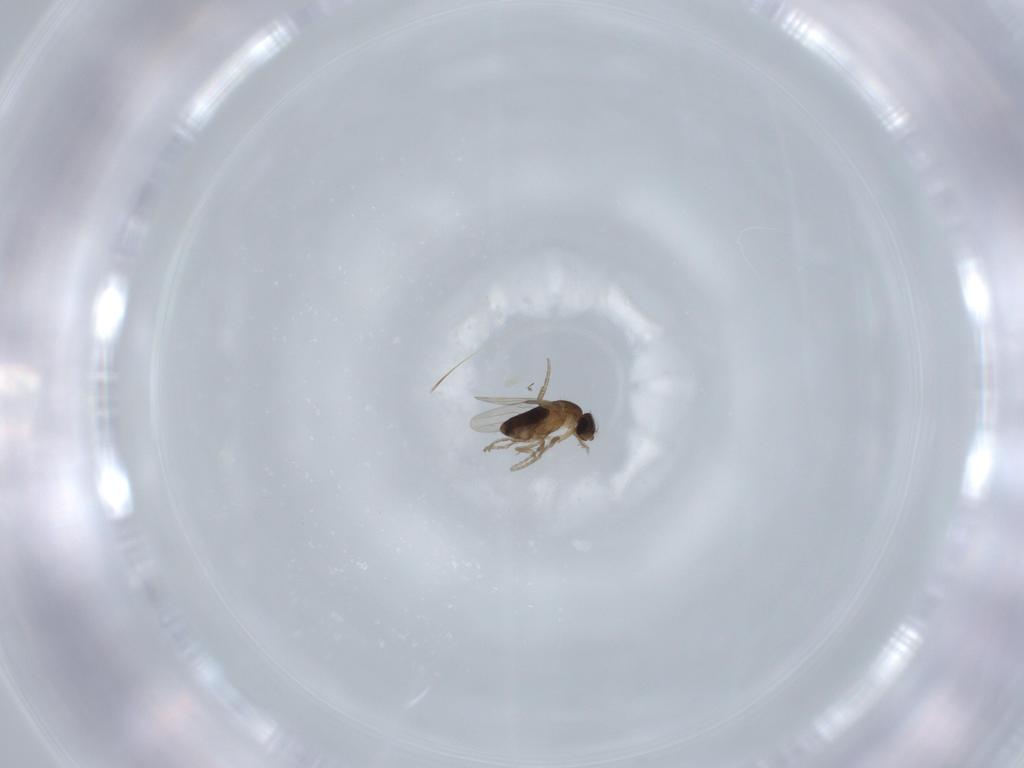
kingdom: Animalia
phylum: Arthropoda
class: Insecta
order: Diptera
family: Phoridae
